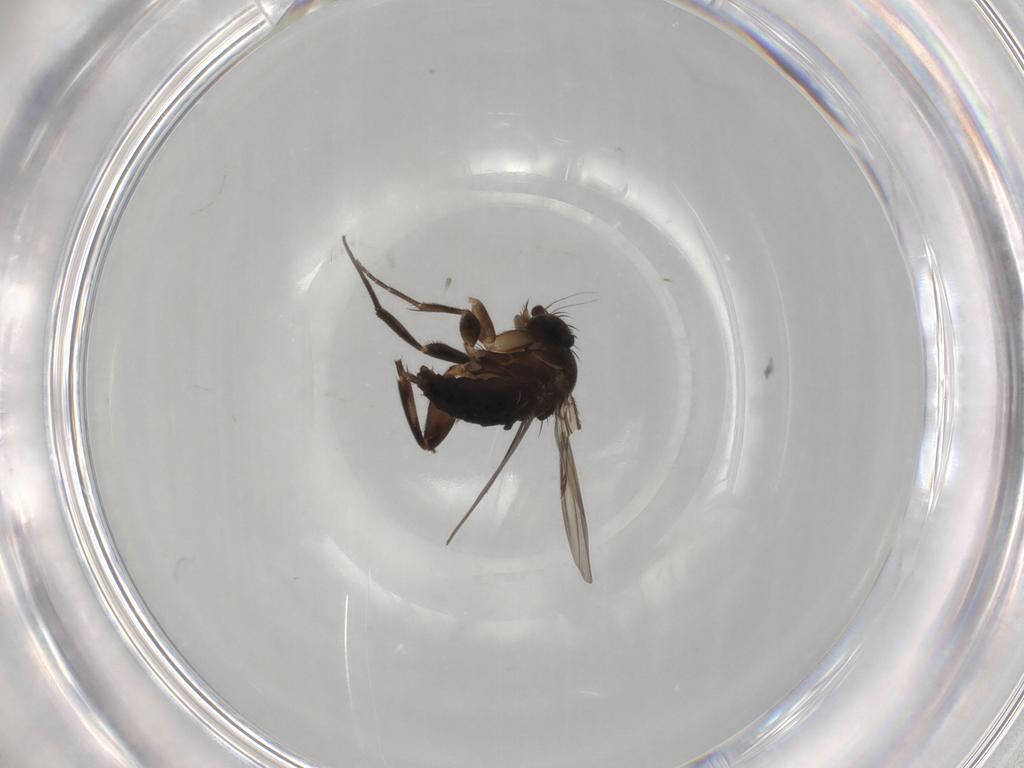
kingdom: Animalia
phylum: Arthropoda
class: Insecta
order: Diptera
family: Phoridae
